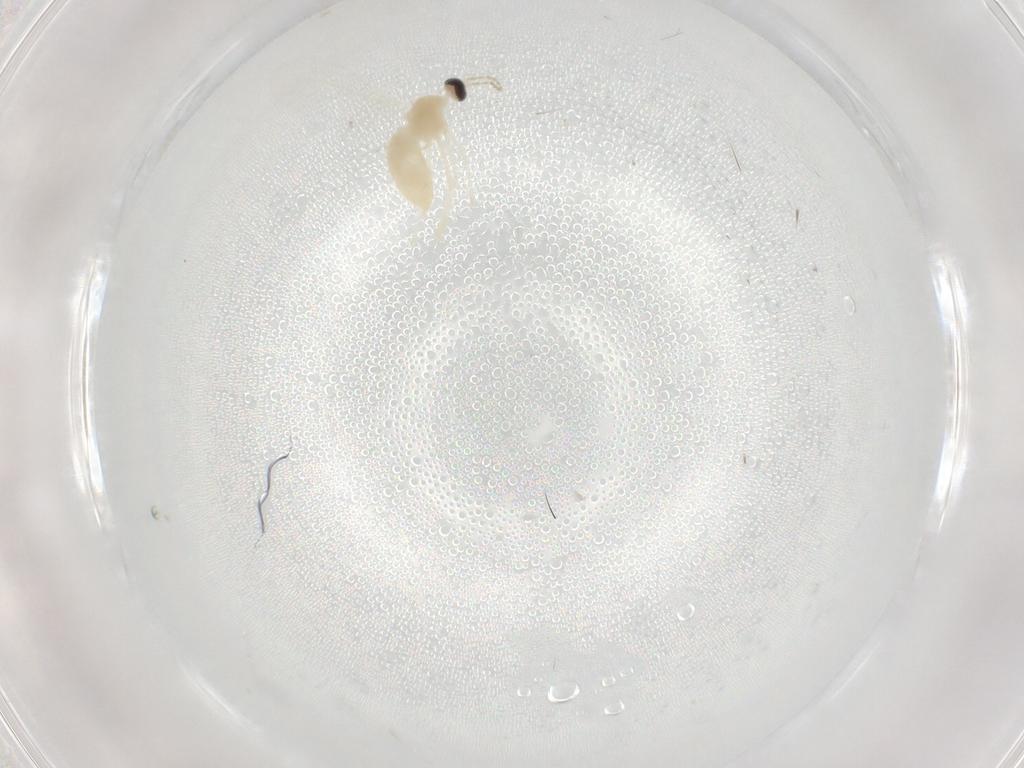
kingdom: Animalia
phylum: Arthropoda
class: Insecta
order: Diptera
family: Cecidomyiidae
